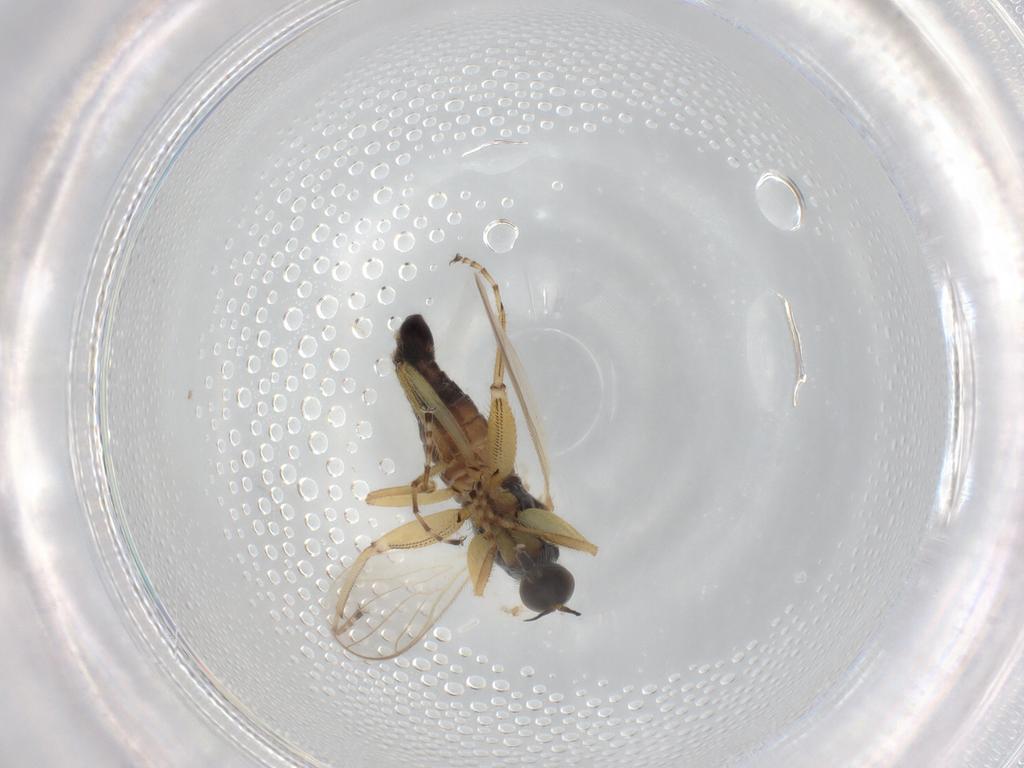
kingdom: Animalia
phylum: Arthropoda
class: Insecta
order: Diptera
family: Hybotidae
